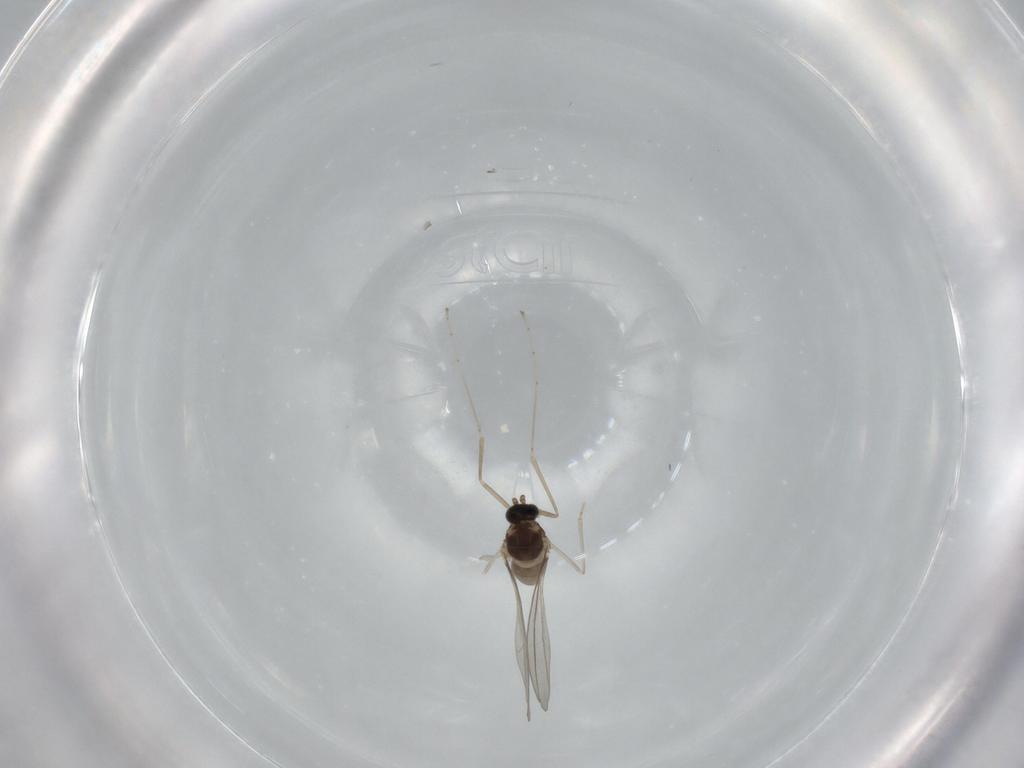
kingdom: Animalia
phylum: Arthropoda
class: Insecta
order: Diptera
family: Cecidomyiidae
